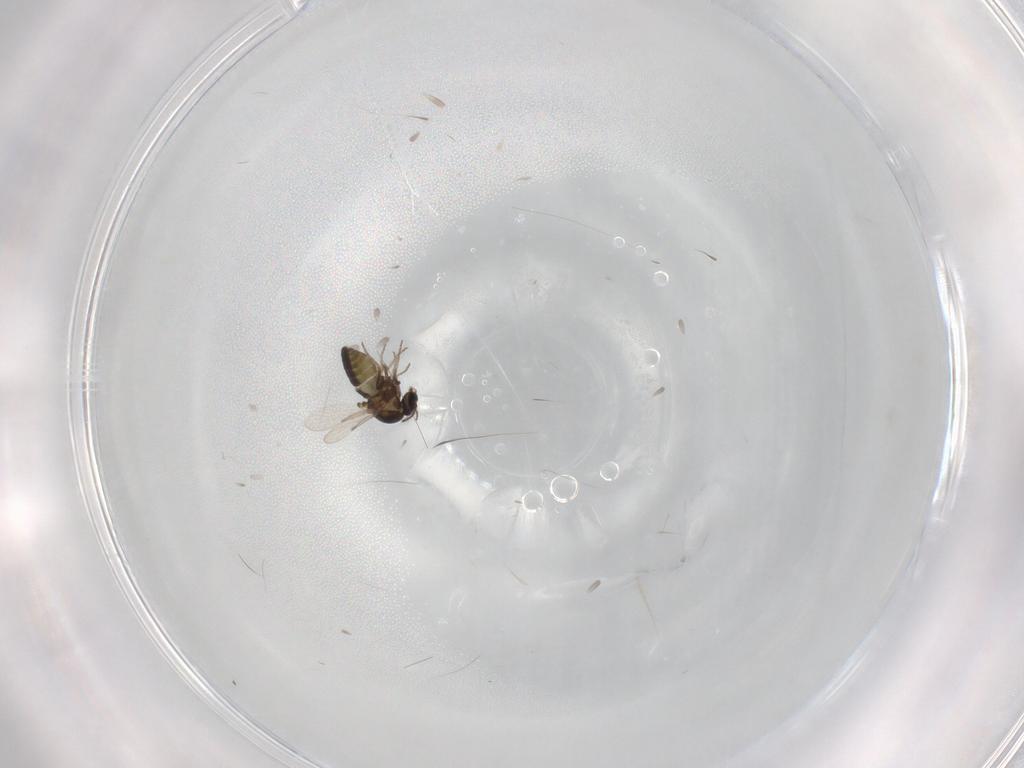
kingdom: Animalia
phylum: Arthropoda
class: Insecta
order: Diptera
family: Ceratopogonidae
